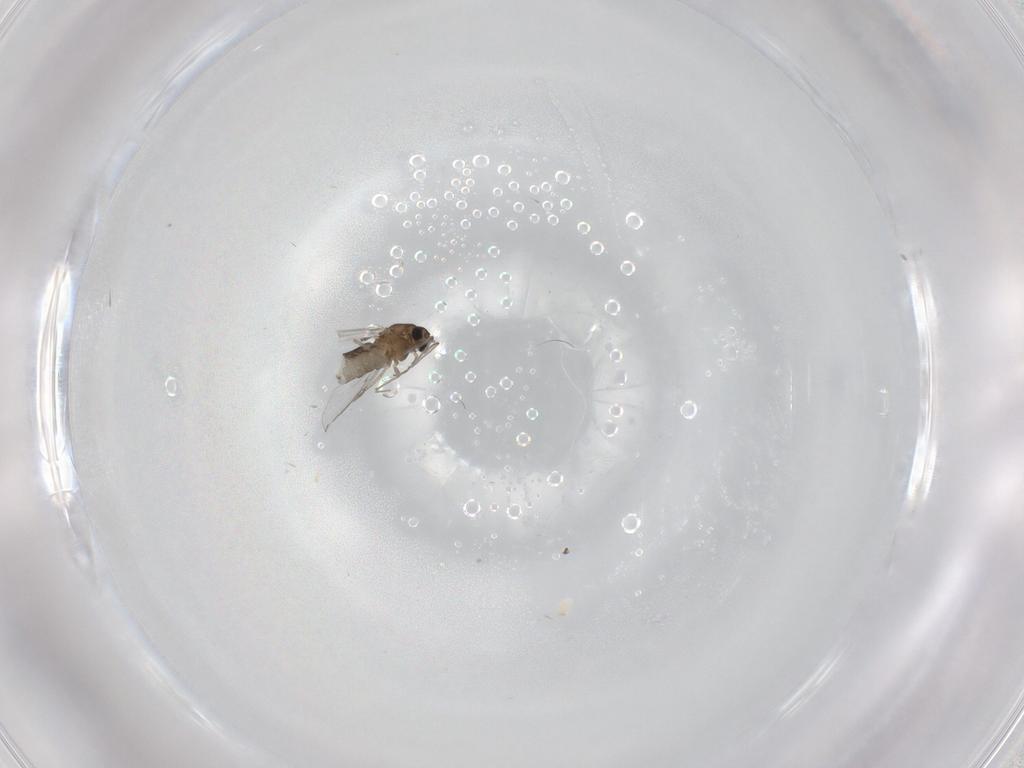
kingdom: Animalia
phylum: Arthropoda
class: Insecta
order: Diptera
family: Chironomidae
